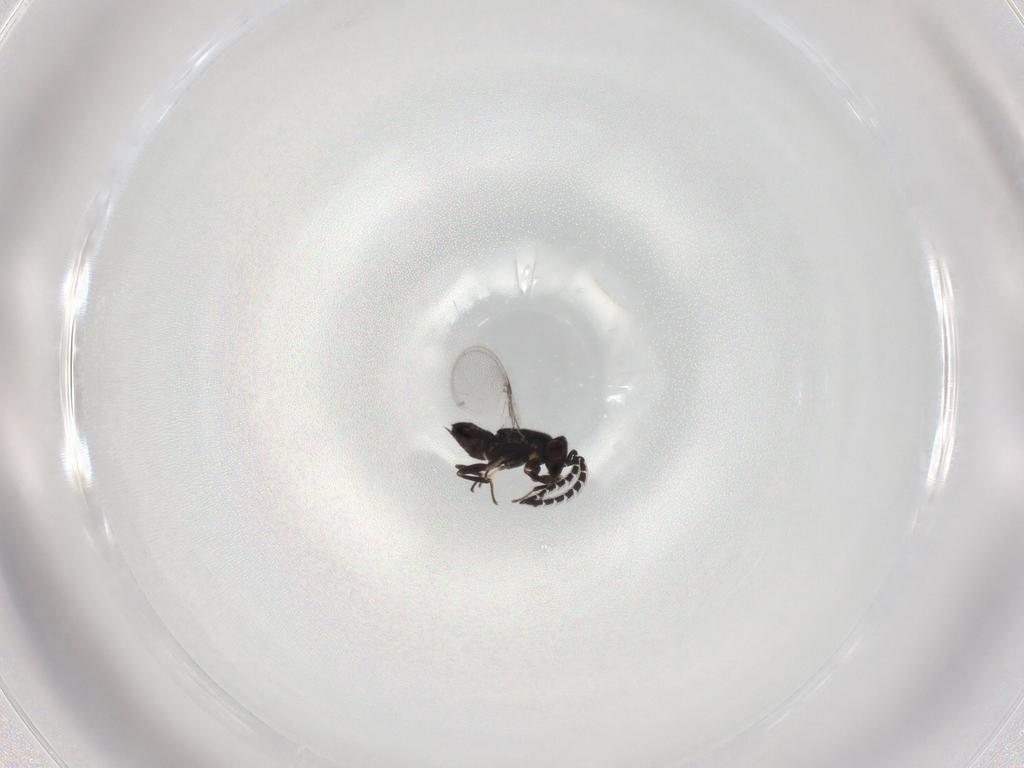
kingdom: Animalia
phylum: Arthropoda
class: Insecta
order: Hymenoptera
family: Encyrtidae
